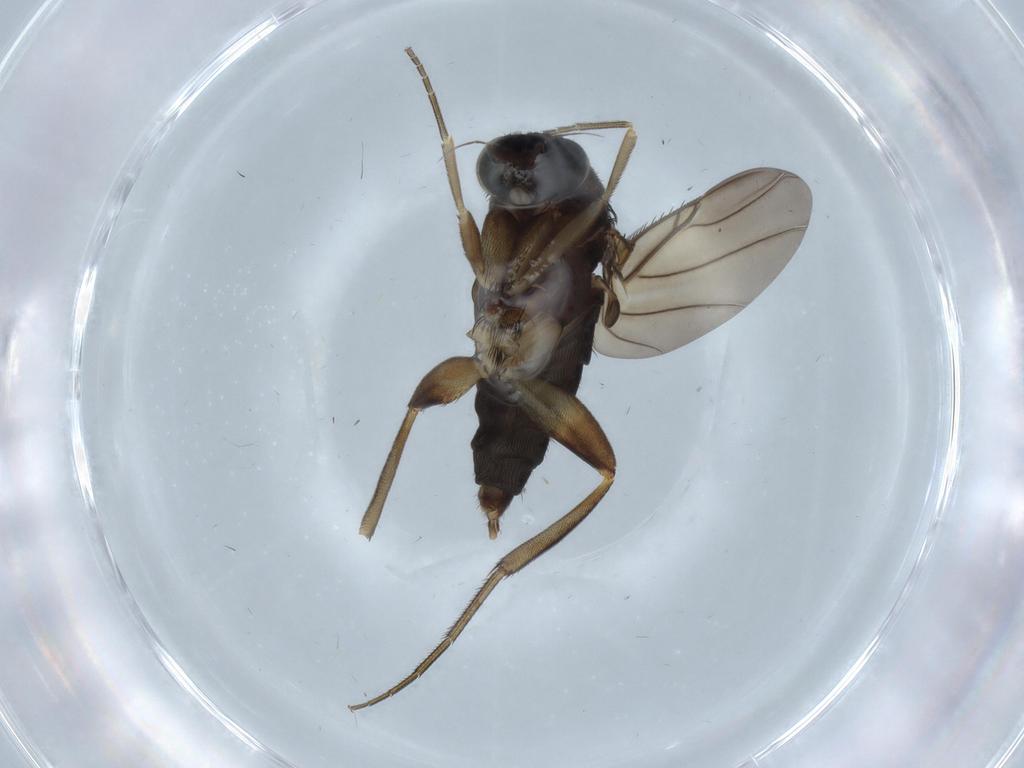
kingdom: Animalia
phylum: Arthropoda
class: Insecta
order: Diptera
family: Phoridae
